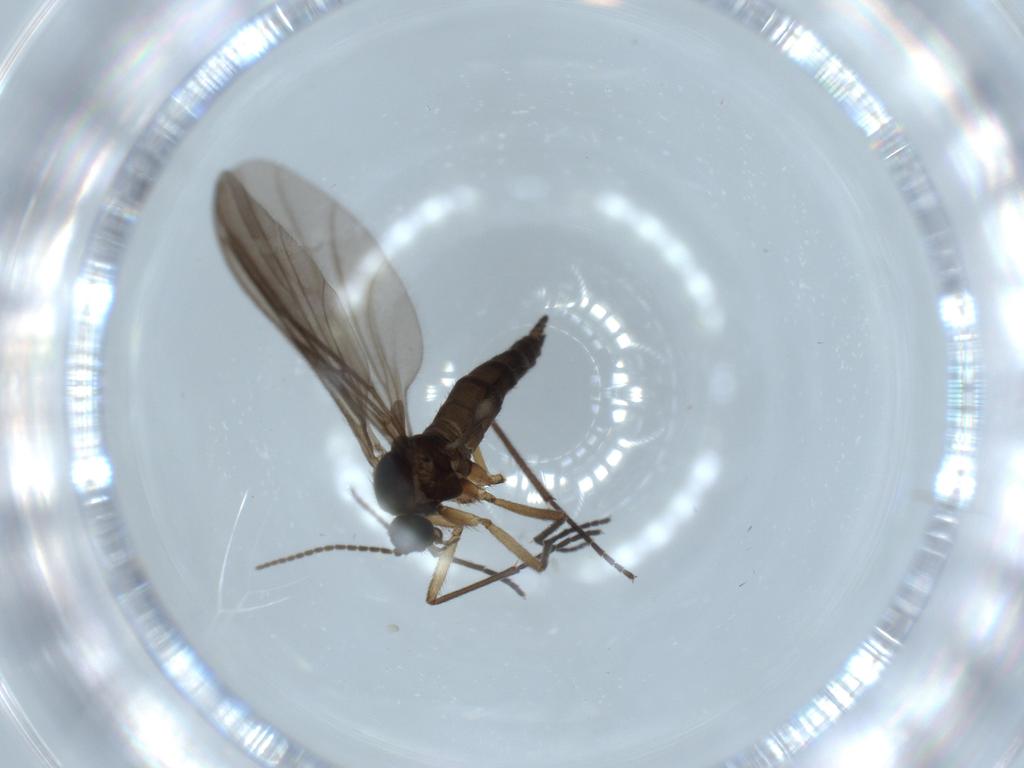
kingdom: Animalia
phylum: Arthropoda
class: Insecta
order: Diptera
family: Sciaridae
